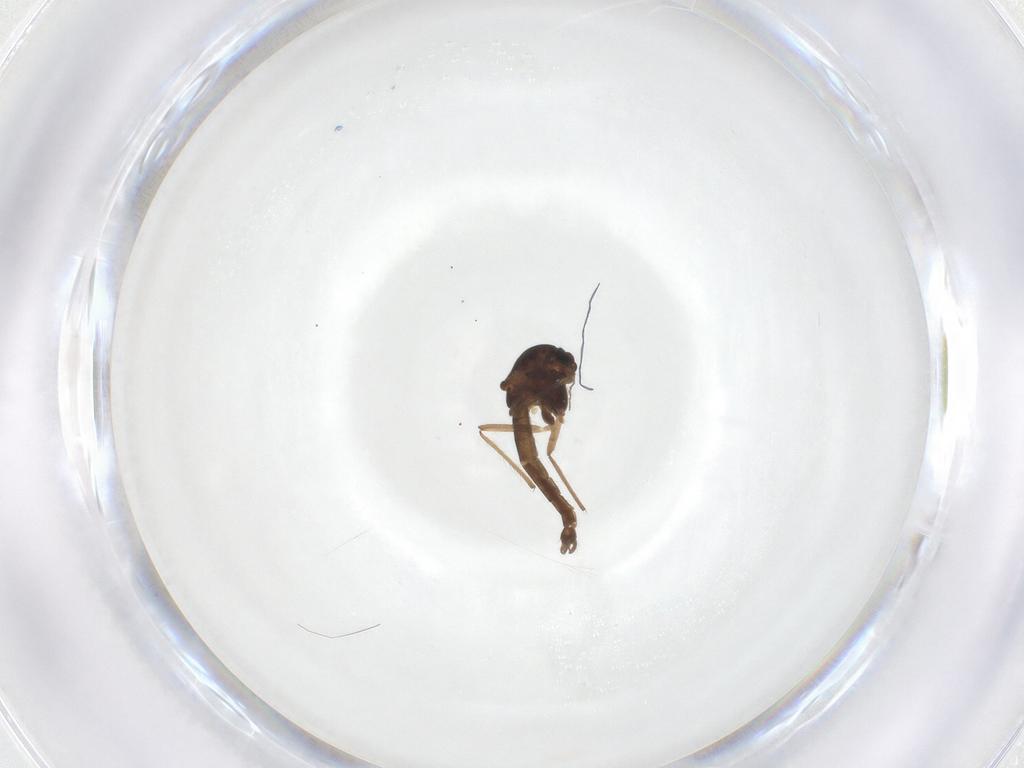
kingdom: Animalia
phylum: Arthropoda
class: Insecta
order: Diptera
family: Chironomidae
